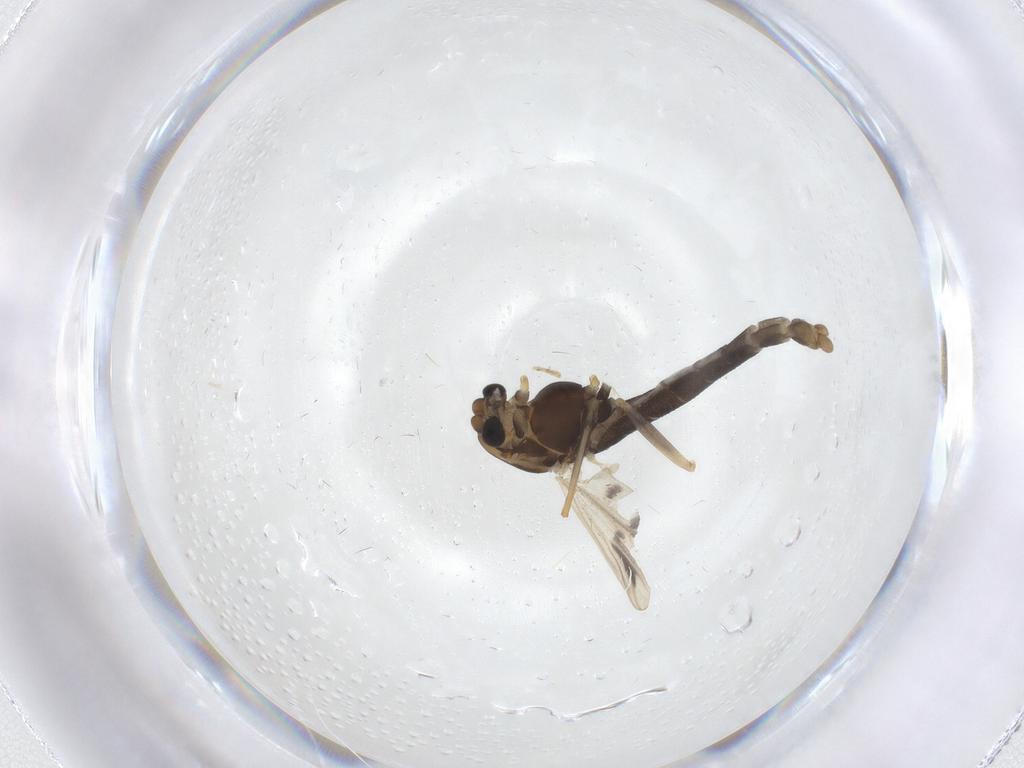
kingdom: Animalia
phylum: Arthropoda
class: Insecta
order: Diptera
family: Chironomidae
